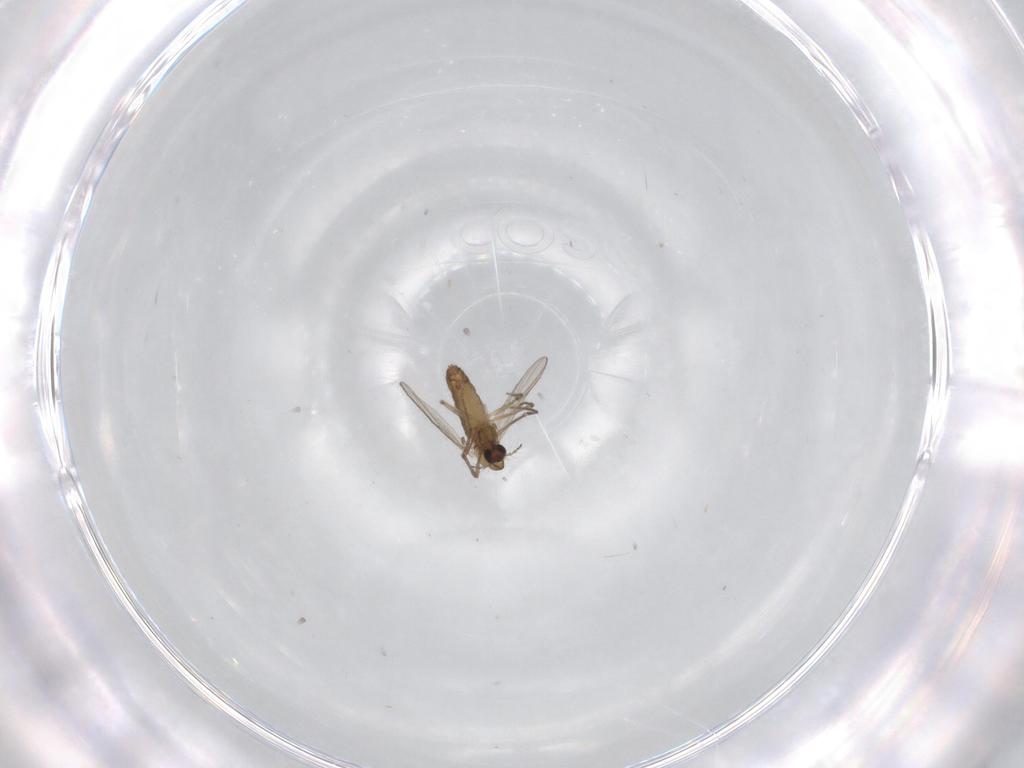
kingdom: Animalia
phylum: Arthropoda
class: Insecta
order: Diptera
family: Chironomidae
